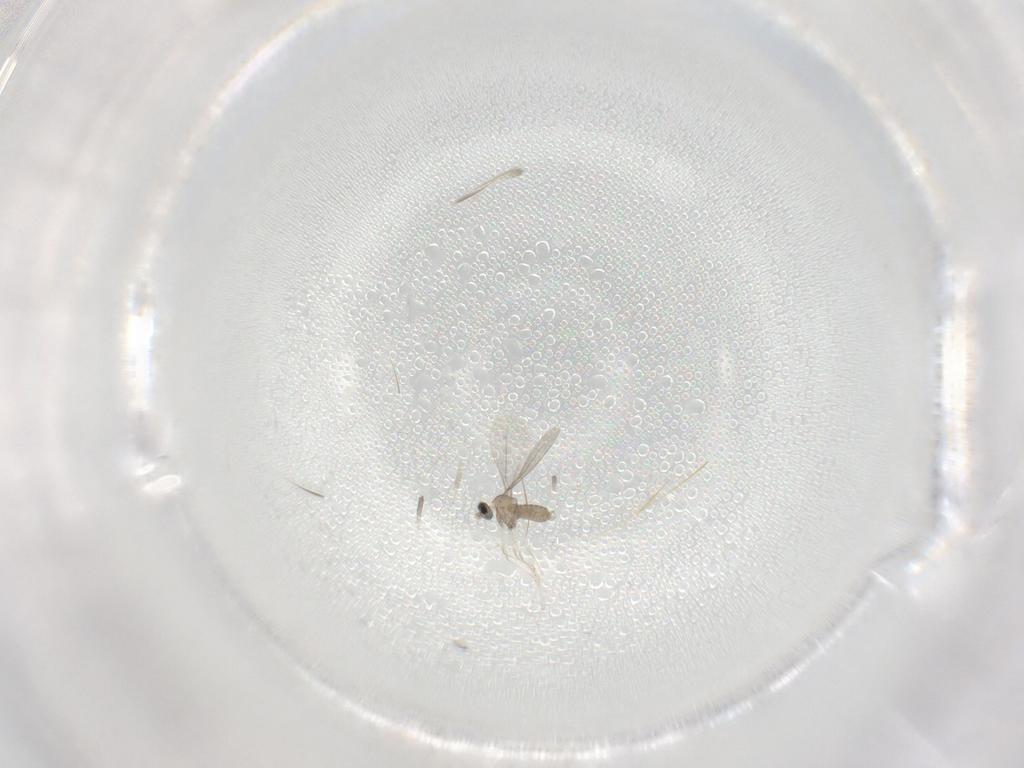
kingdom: Animalia
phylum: Arthropoda
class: Insecta
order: Diptera
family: Cecidomyiidae
